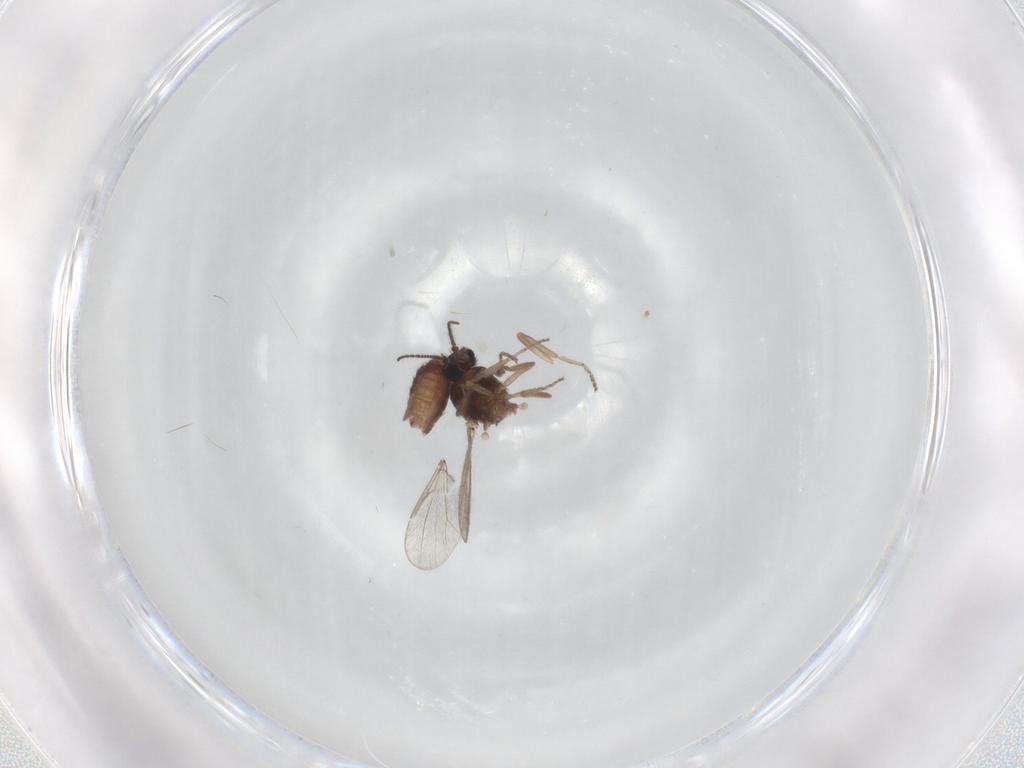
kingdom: Animalia
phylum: Arthropoda
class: Insecta
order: Diptera
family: Ceratopogonidae
